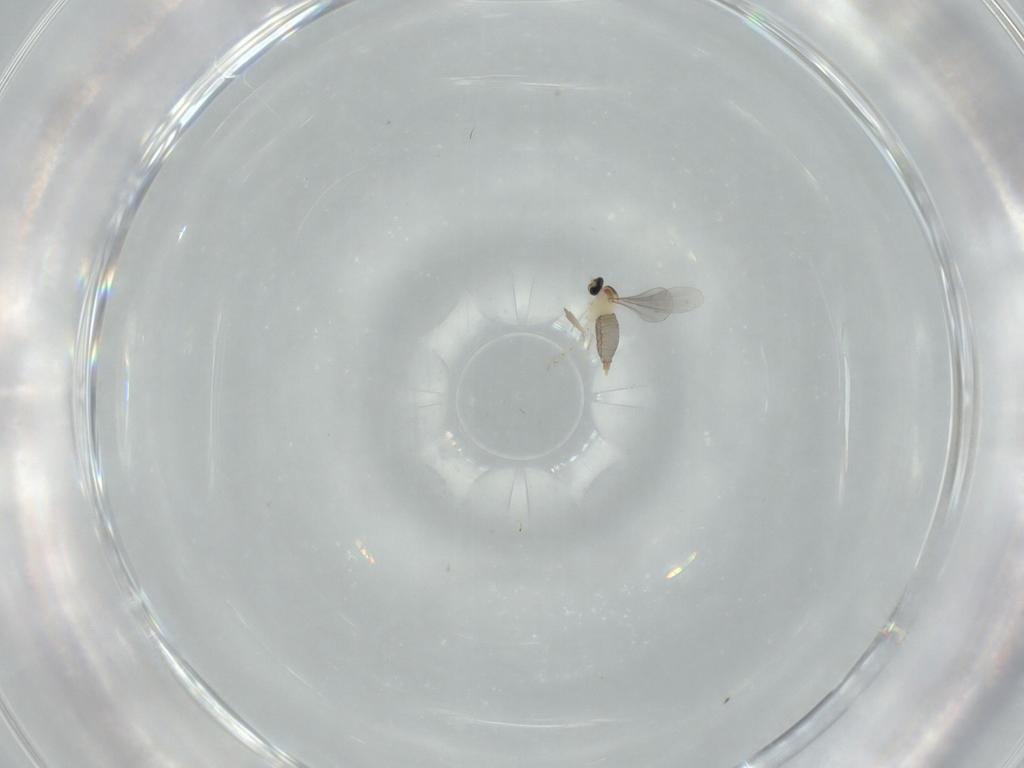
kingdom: Animalia
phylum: Arthropoda
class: Insecta
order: Diptera
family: Cecidomyiidae
